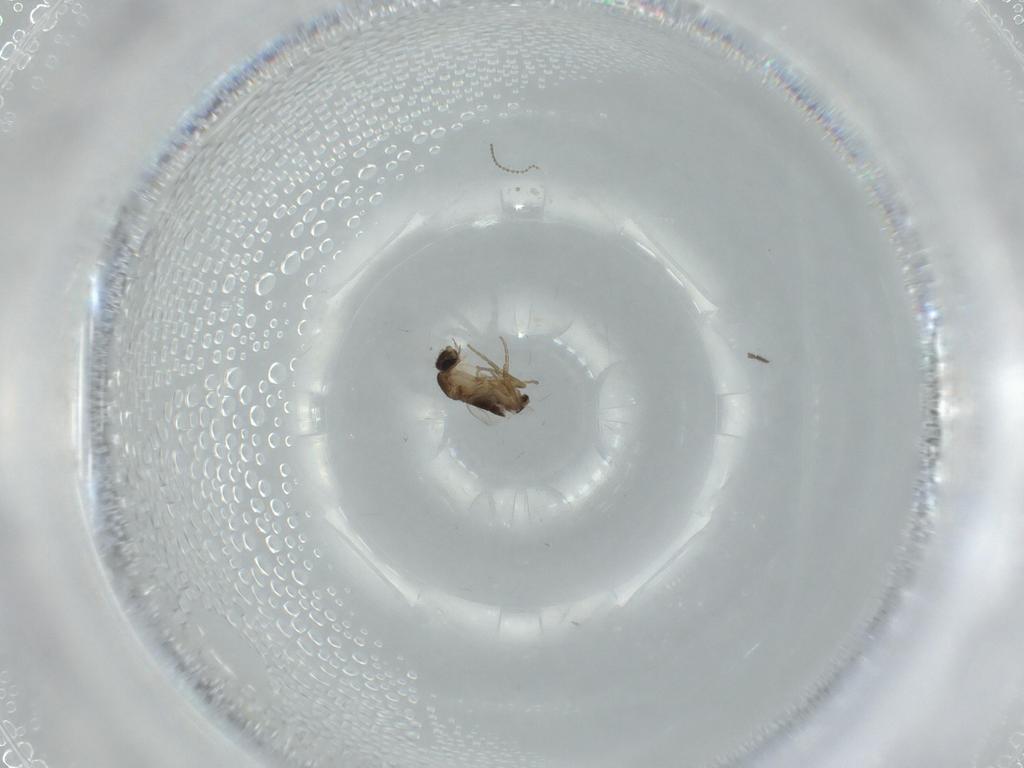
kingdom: Animalia
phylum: Arthropoda
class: Insecta
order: Diptera
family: Phoridae
